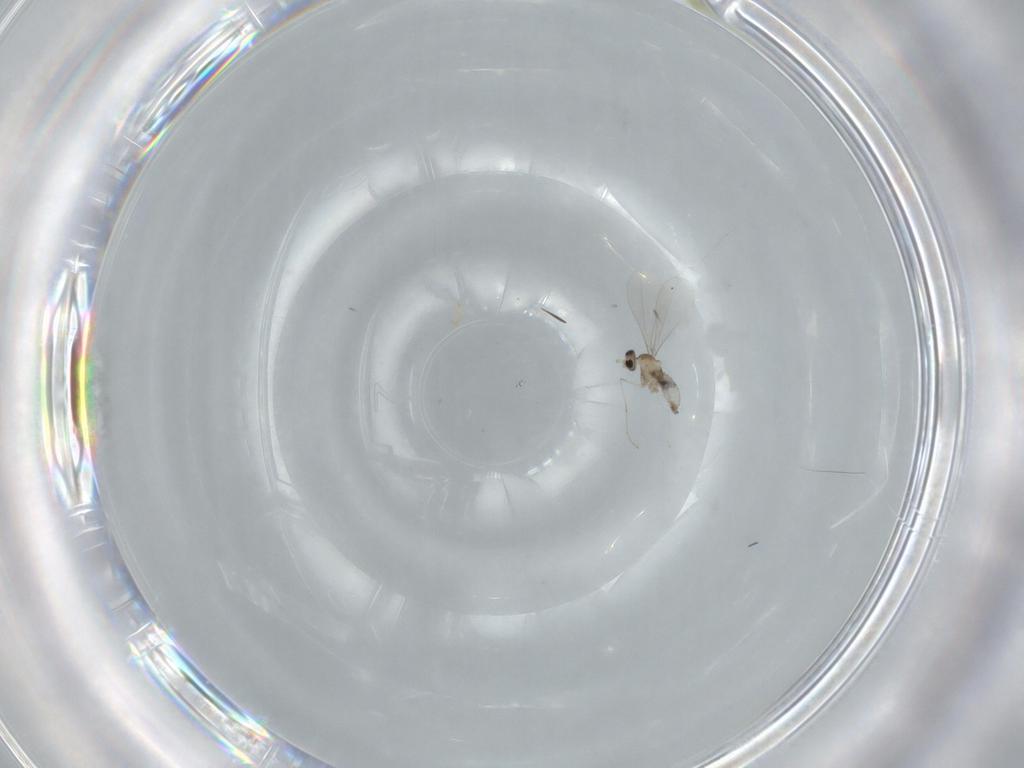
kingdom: Animalia
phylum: Arthropoda
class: Insecta
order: Diptera
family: Cecidomyiidae
